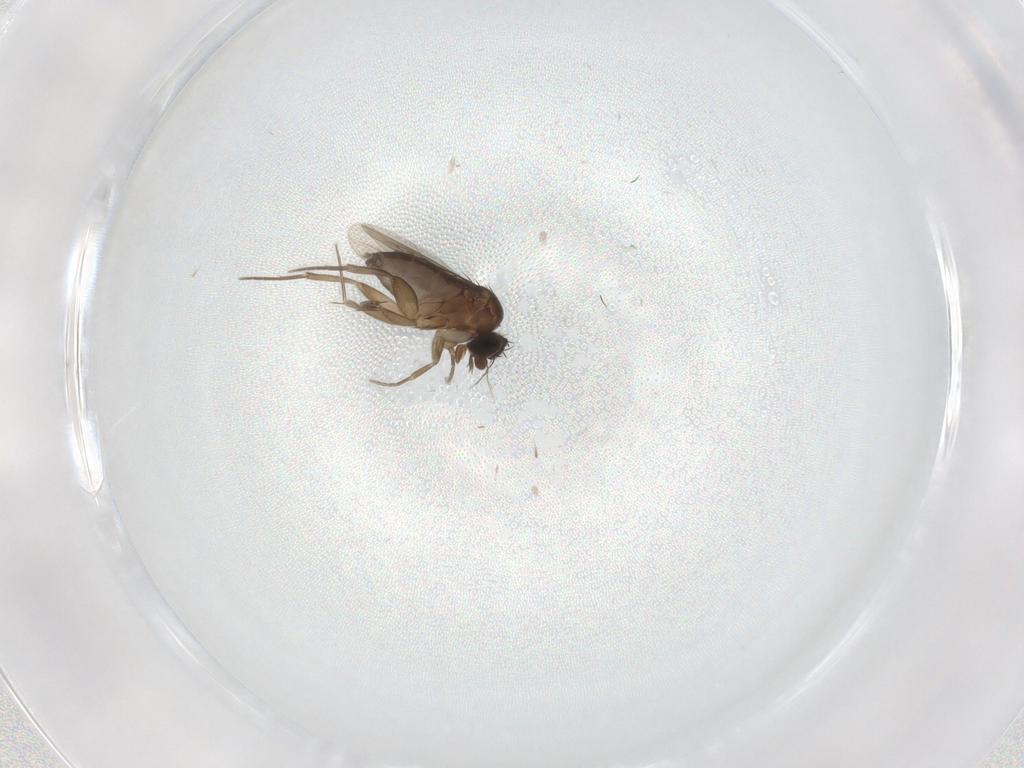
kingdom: Animalia
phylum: Arthropoda
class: Insecta
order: Diptera
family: Phoridae
